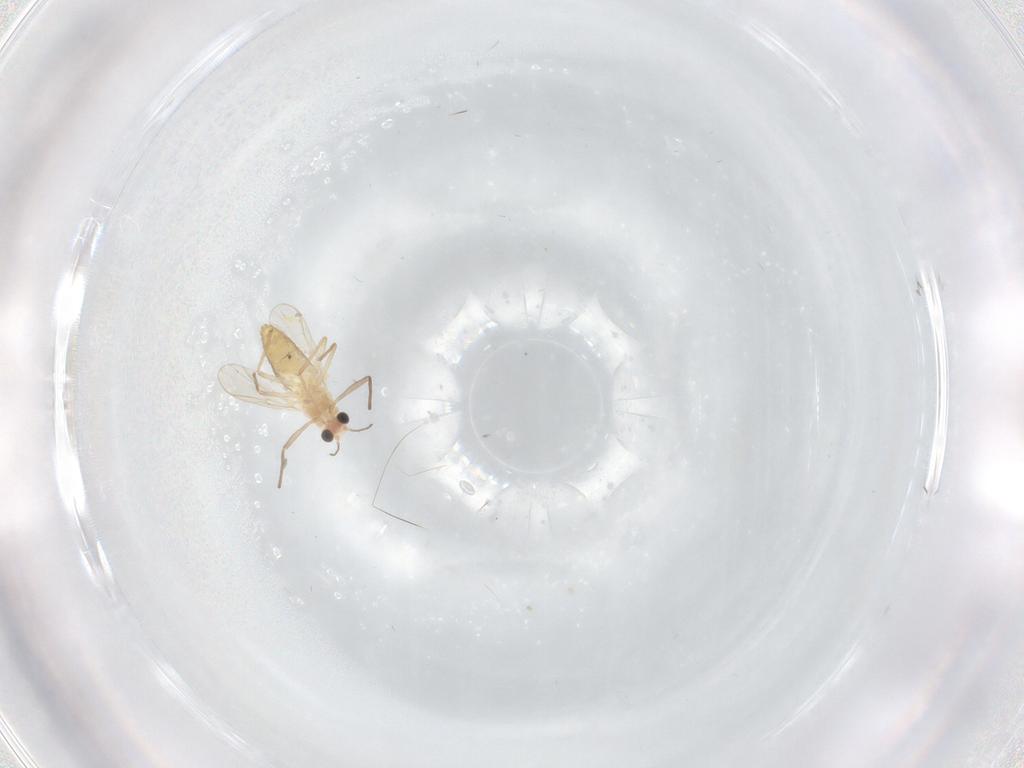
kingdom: Animalia
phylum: Arthropoda
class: Insecta
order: Diptera
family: Chironomidae
